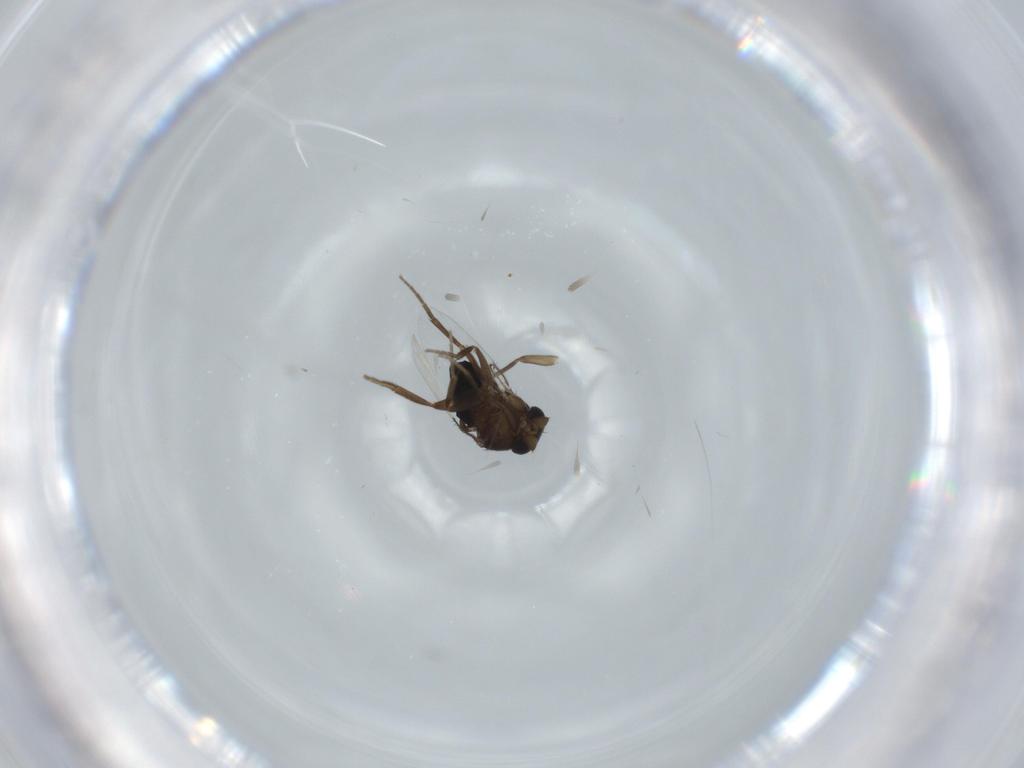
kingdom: Animalia
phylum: Arthropoda
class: Insecta
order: Diptera
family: Phoridae
